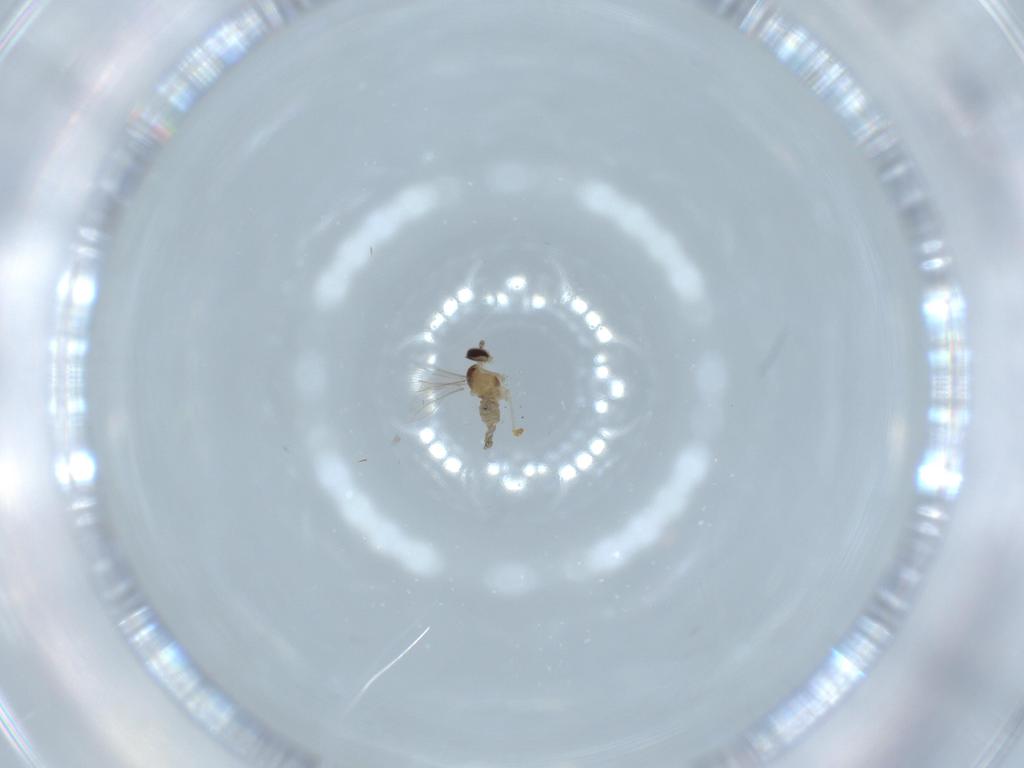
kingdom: Animalia
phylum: Arthropoda
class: Insecta
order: Diptera
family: Cecidomyiidae
